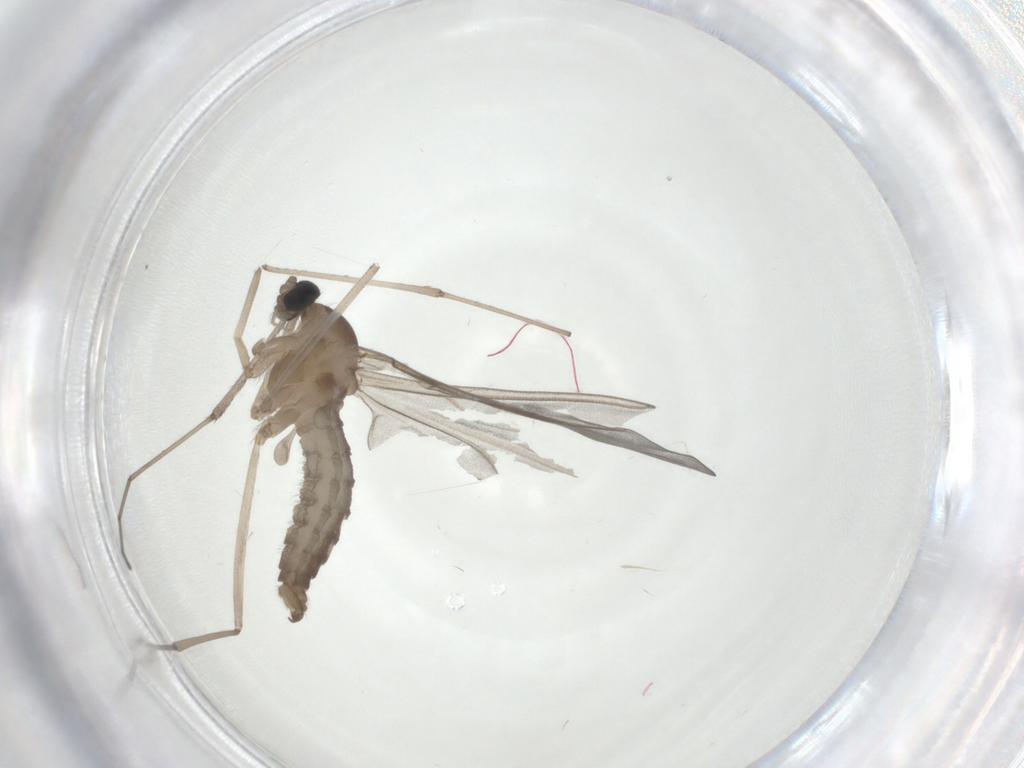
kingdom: Animalia
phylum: Arthropoda
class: Insecta
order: Diptera
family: Cecidomyiidae
